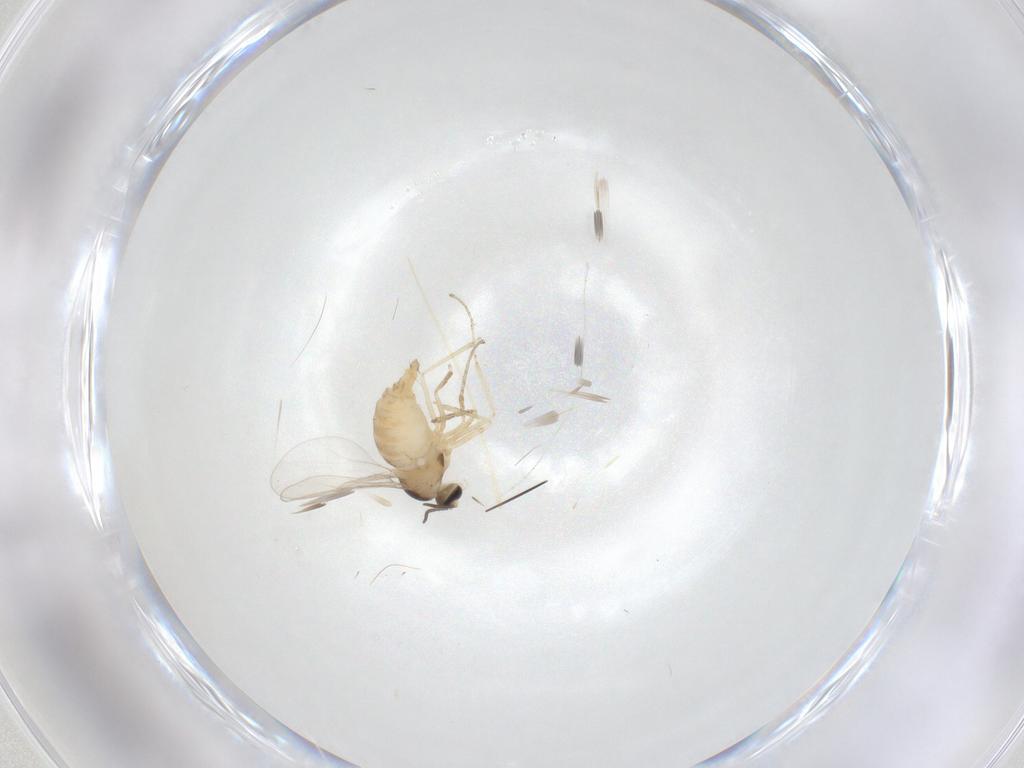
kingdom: Animalia
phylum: Arthropoda
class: Insecta
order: Diptera
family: Cecidomyiidae
